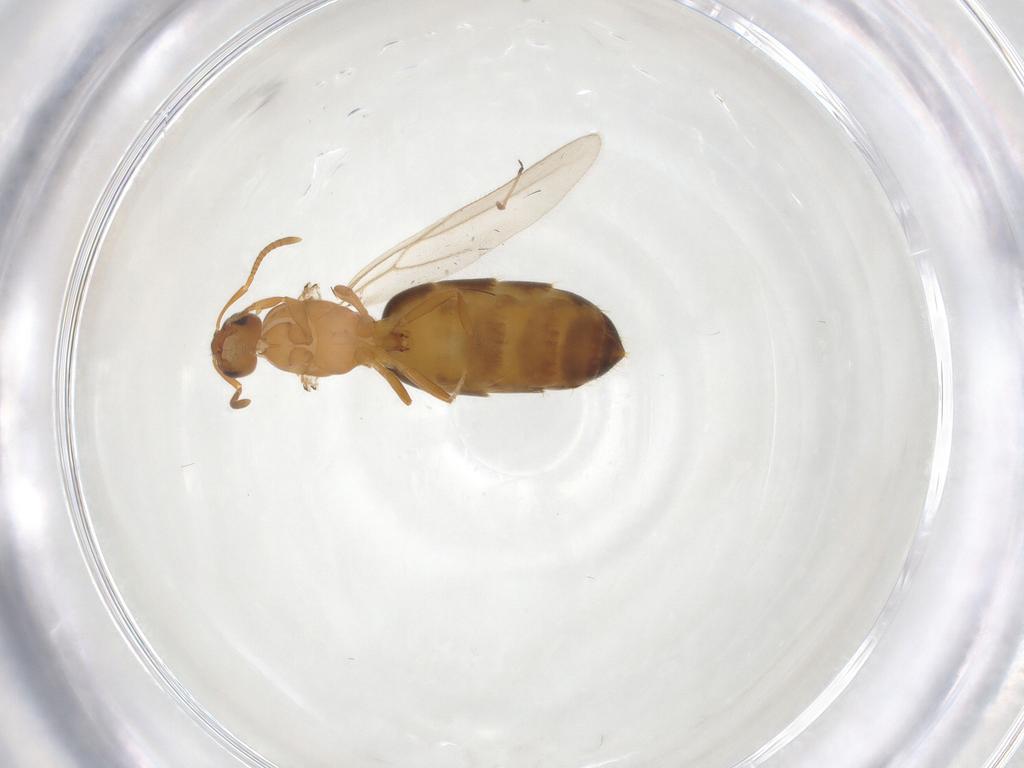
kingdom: Animalia
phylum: Arthropoda
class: Insecta
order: Hymenoptera
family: Formicidae
